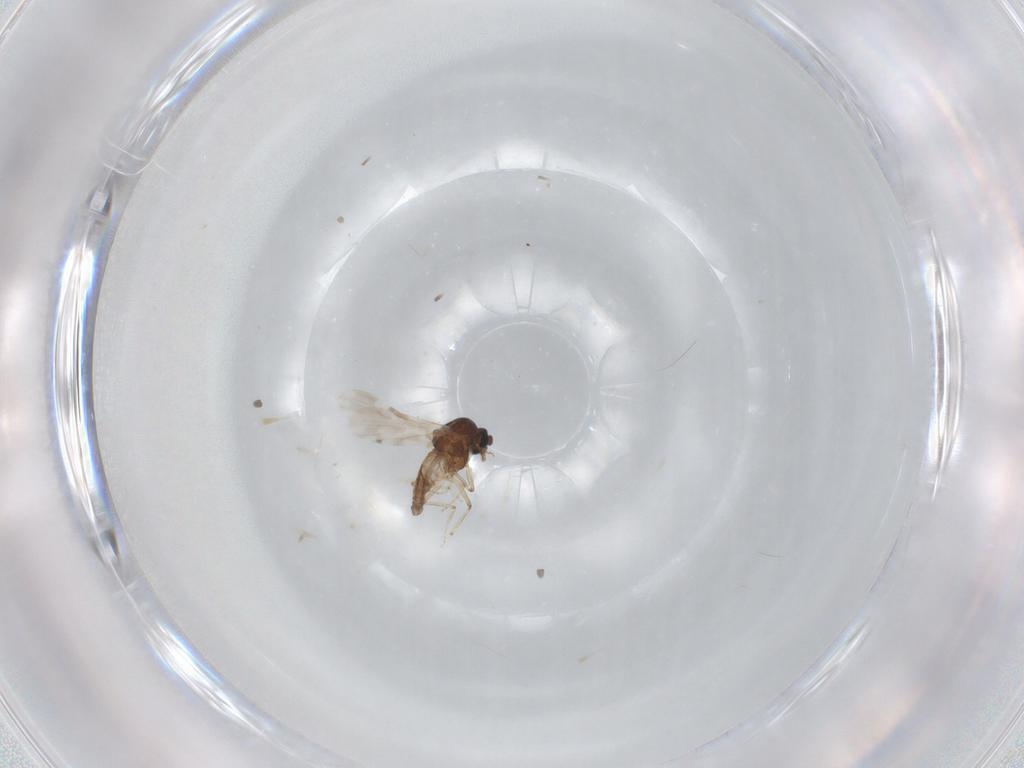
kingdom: Animalia
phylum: Arthropoda
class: Insecta
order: Diptera
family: Ceratopogonidae
